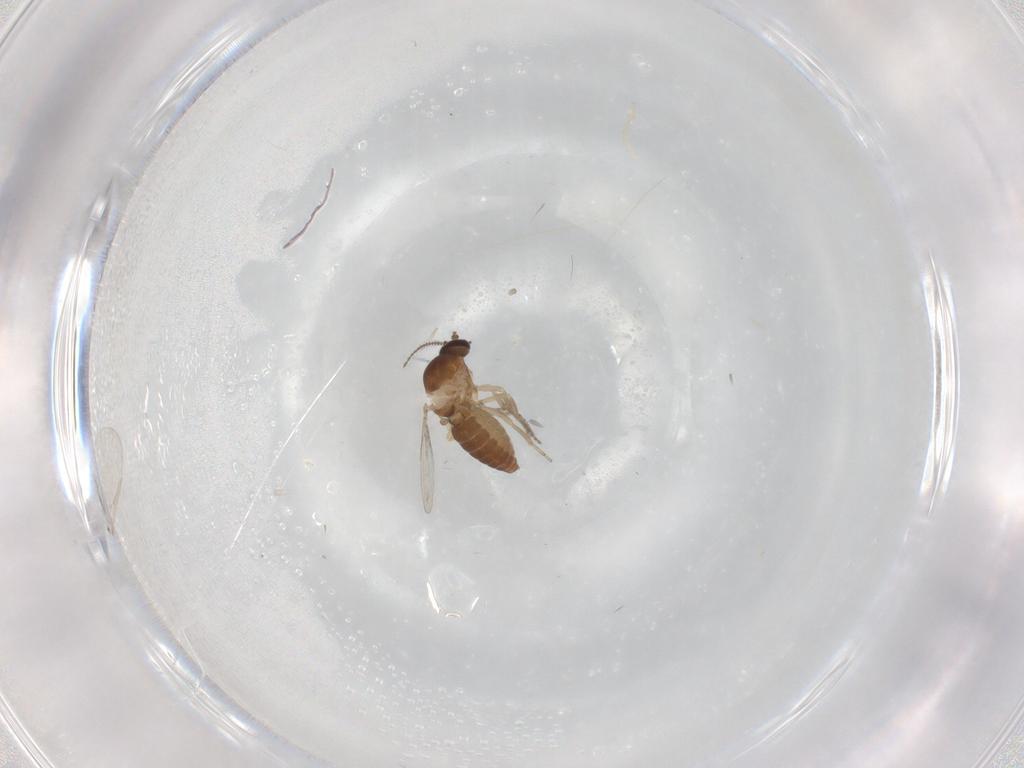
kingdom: Animalia
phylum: Arthropoda
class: Insecta
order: Diptera
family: Ceratopogonidae
